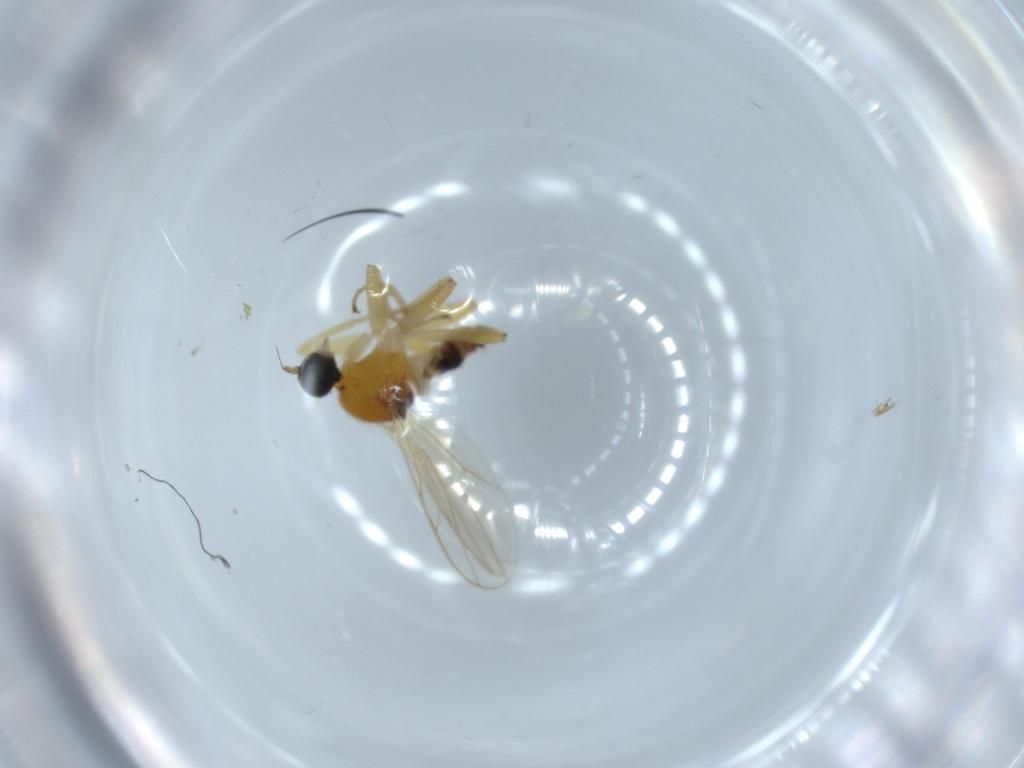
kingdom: Animalia
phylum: Arthropoda
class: Insecta
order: Diptera
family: Hybotidae
